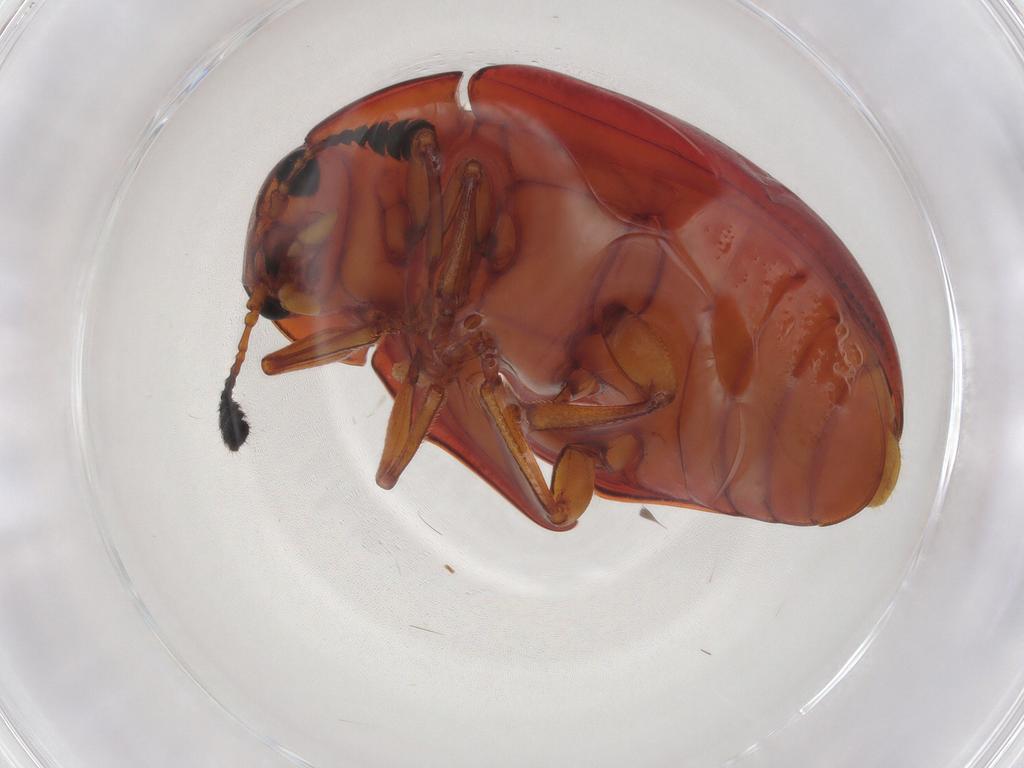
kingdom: Animalia
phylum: Arthropoda
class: Insecta
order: Coleoptera
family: Erotylidae
